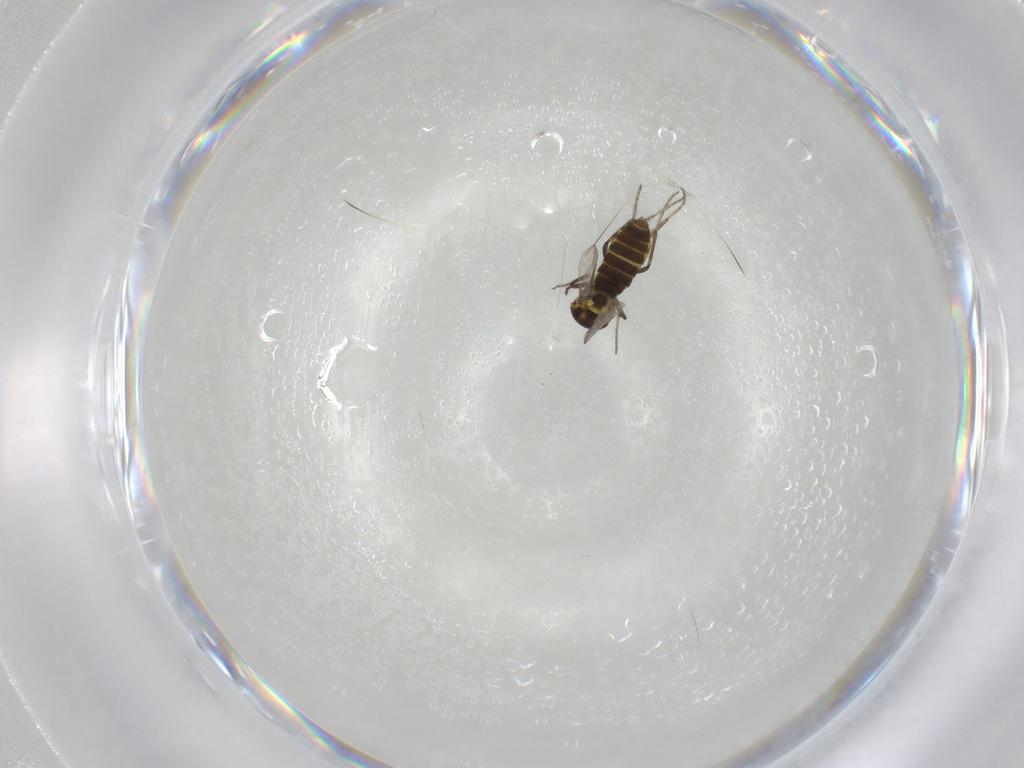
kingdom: Animalia
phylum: Arthropoda
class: Insecta
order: Diptera
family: Ceratopogonidae
